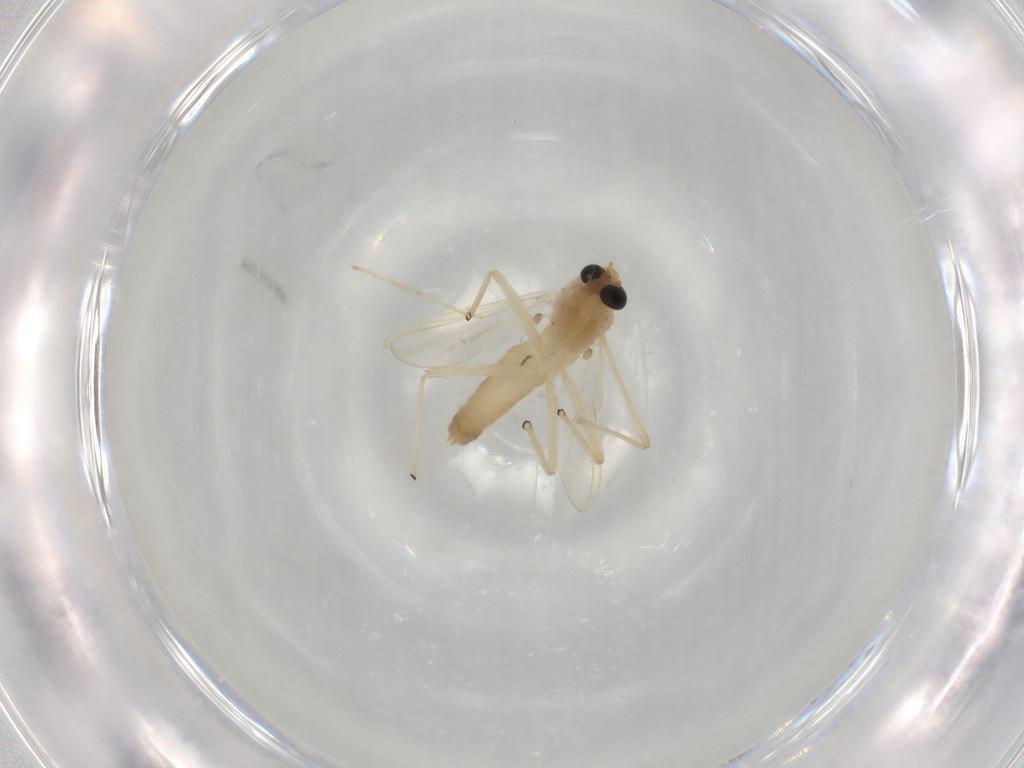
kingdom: Animalia
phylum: Arthropoda
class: Insecta
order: Diptera
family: Chironomidae
